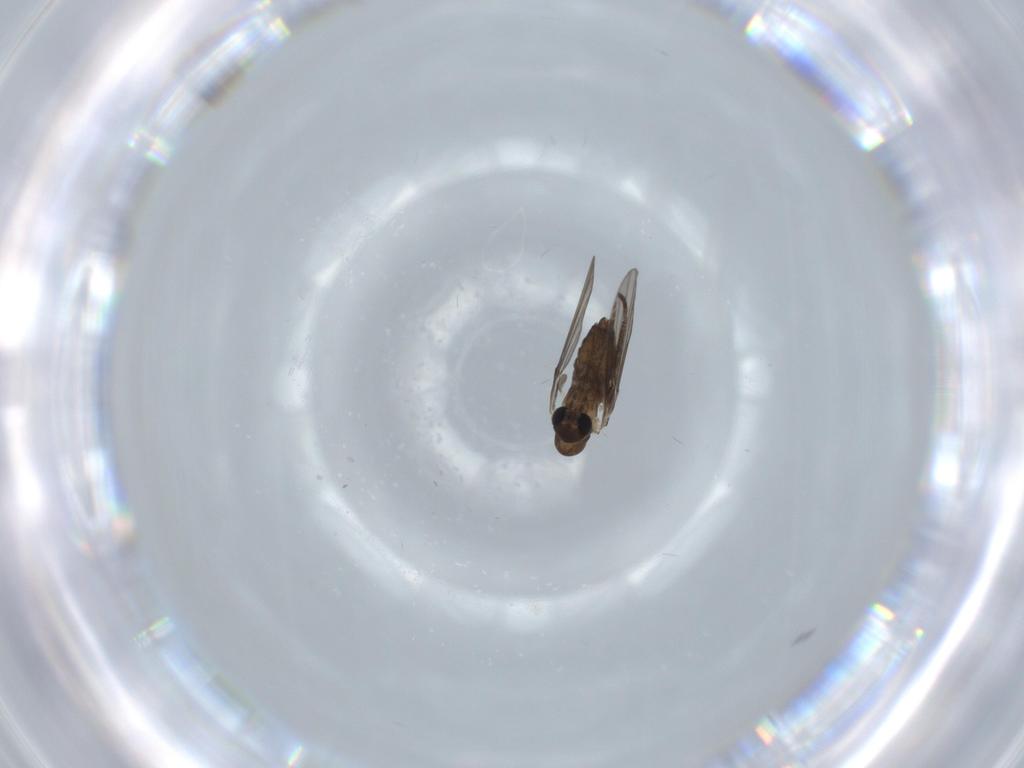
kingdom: Animalia
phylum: Arthropoda
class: Insecta
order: Diptera
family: Psychodidae
